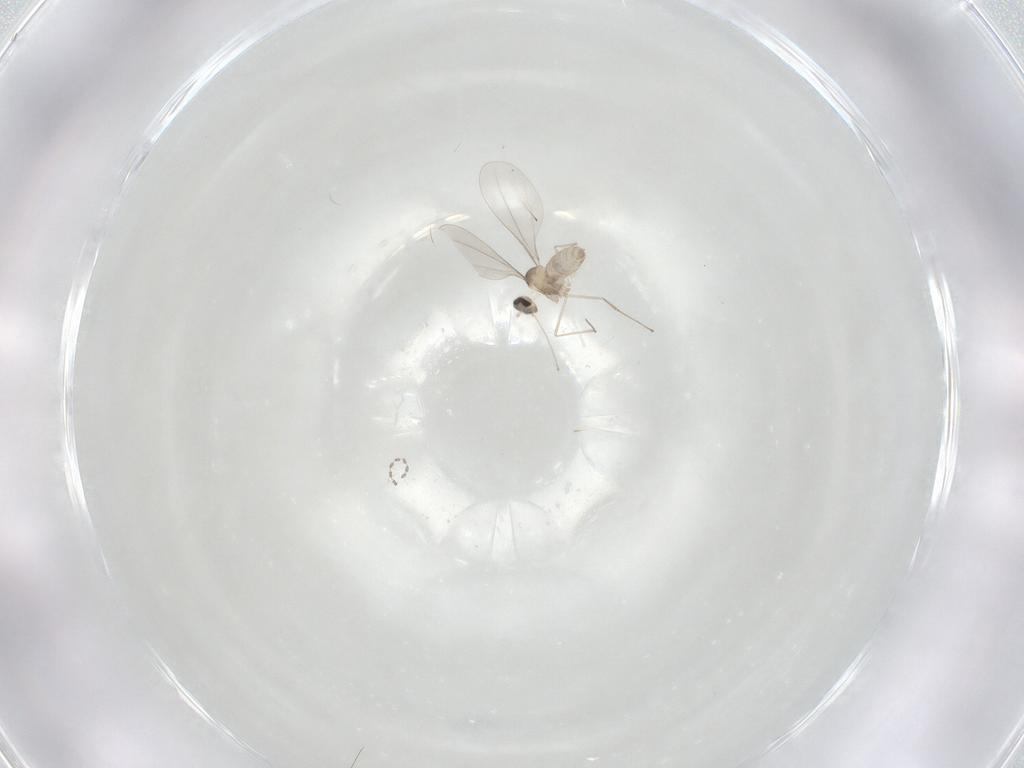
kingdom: Animalia
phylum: Arthropoda
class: Insecta
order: Diptera
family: Cecidomyiidae
